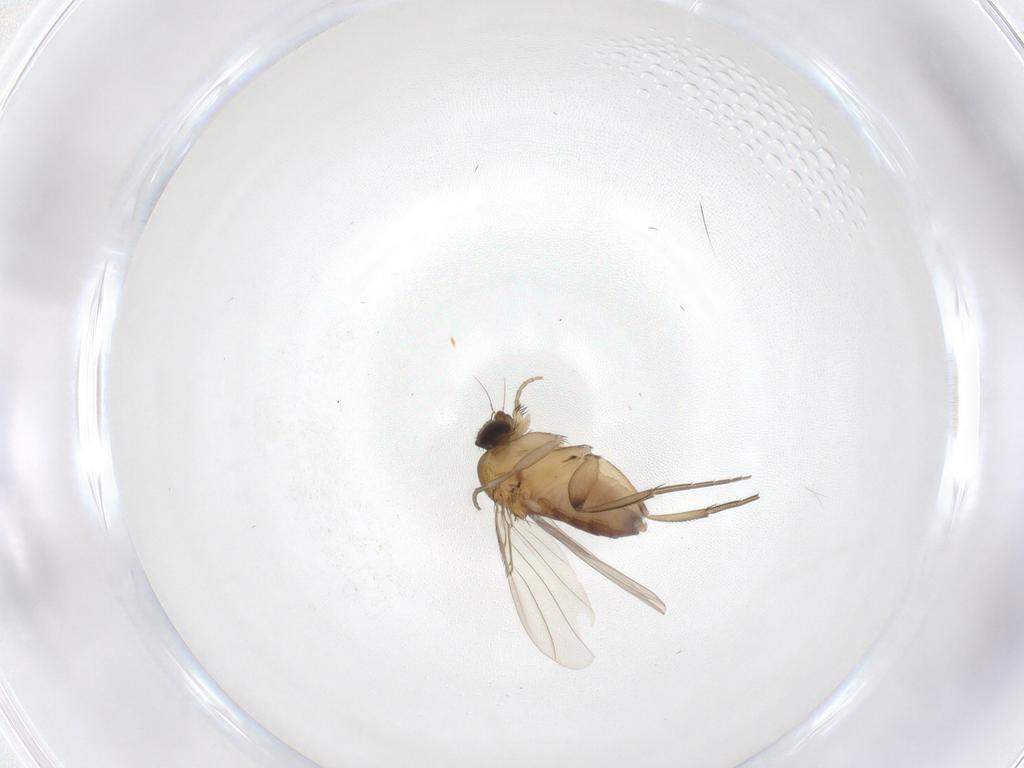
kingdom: Animalia
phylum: Arthropoda
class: Insecta
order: Diptera
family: Phoridae
